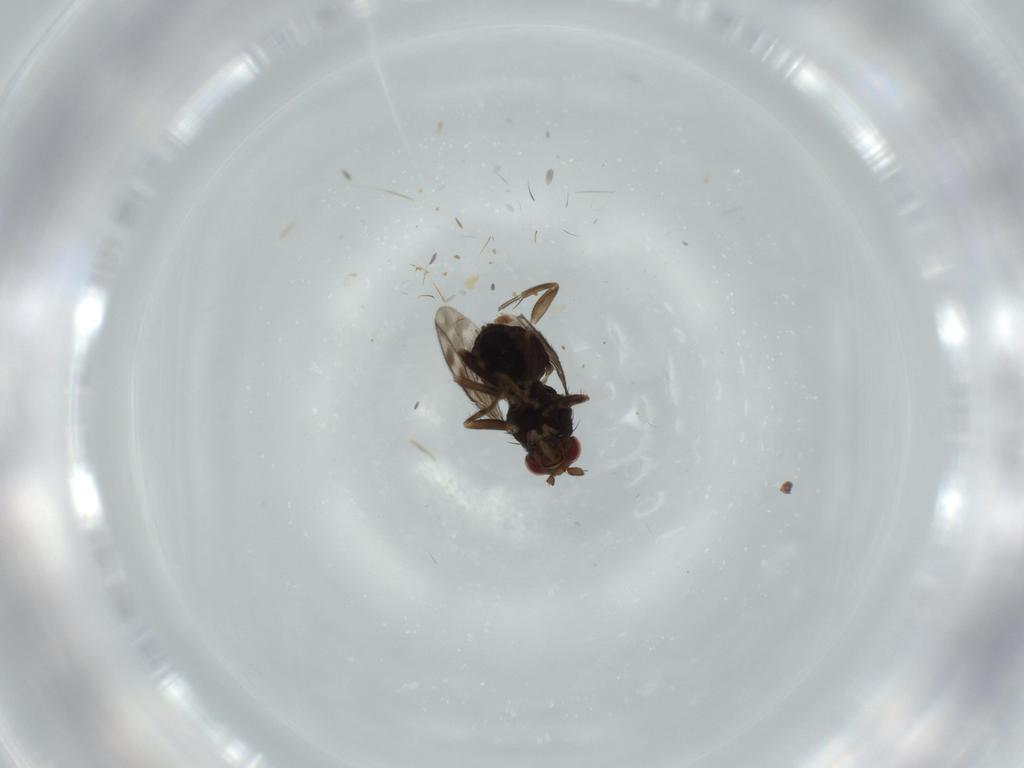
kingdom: Animalia
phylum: Arthropoda
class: Insecta
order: Diptera
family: Sphaeroceridae
